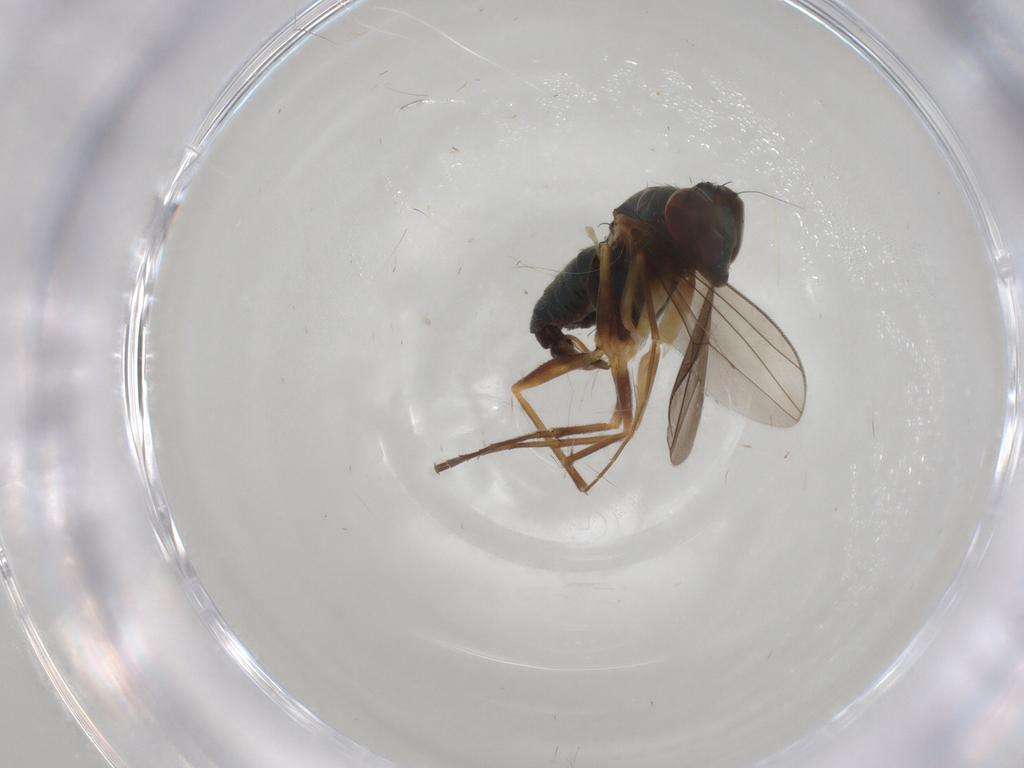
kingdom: Animalia
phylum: Arthropoda
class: Insecta
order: Diptera
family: Dolichopodidae
